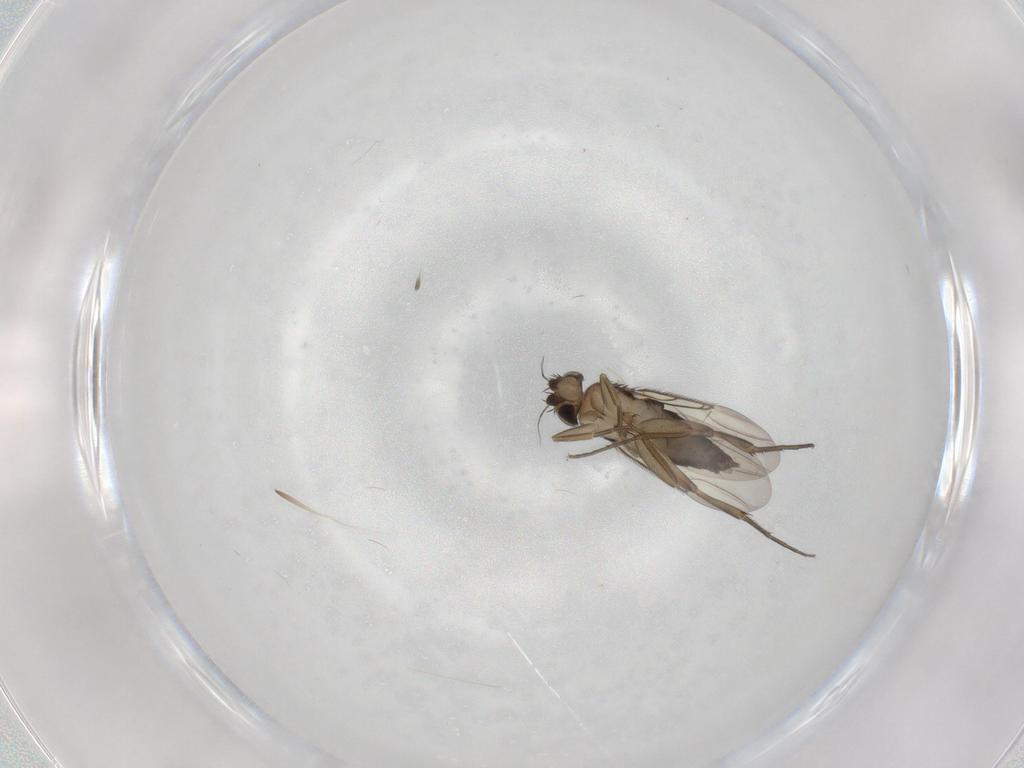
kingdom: Animalia
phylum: Arthropoda
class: Insecta
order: Diptera
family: Phoridae
